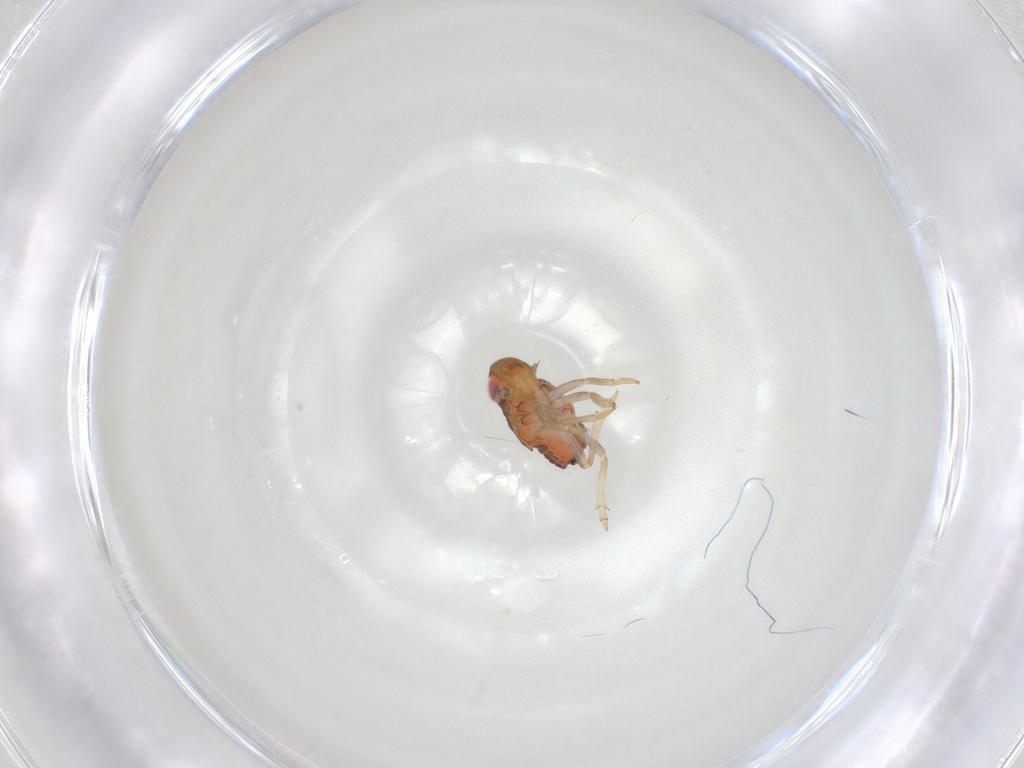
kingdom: Animalia
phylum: Arthropoda
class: Insecta
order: Hemiptera
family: Issidae
